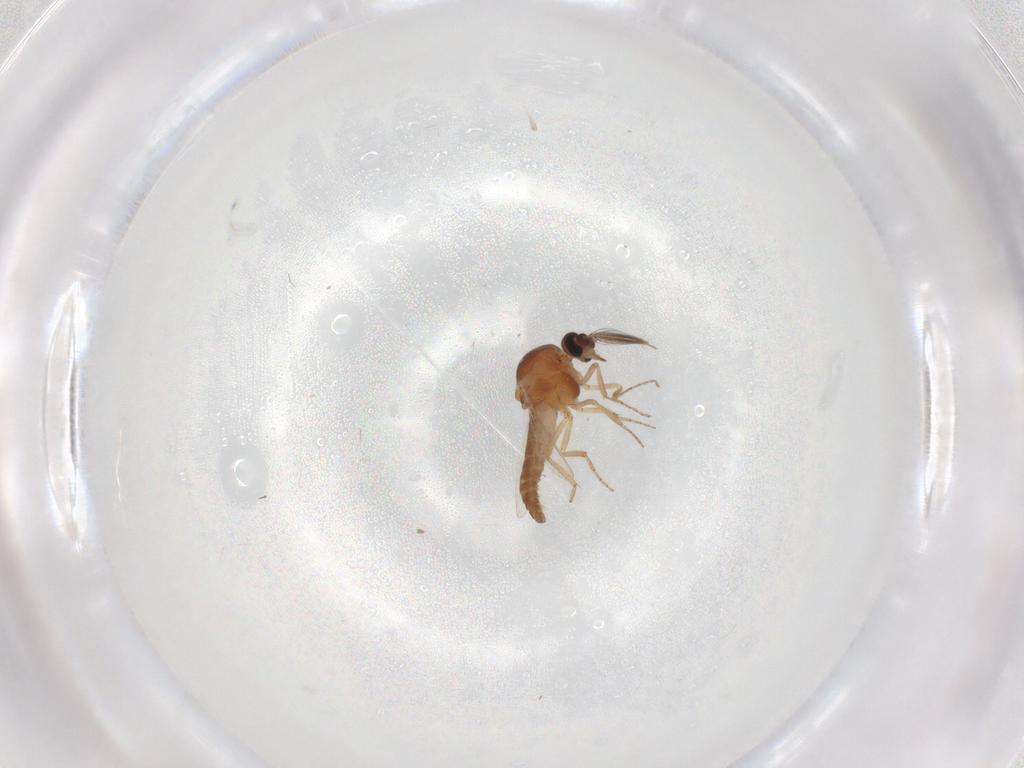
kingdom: Animalia
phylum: Arthropoda
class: Insecta
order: Diptera
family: Ceratopogonidae
